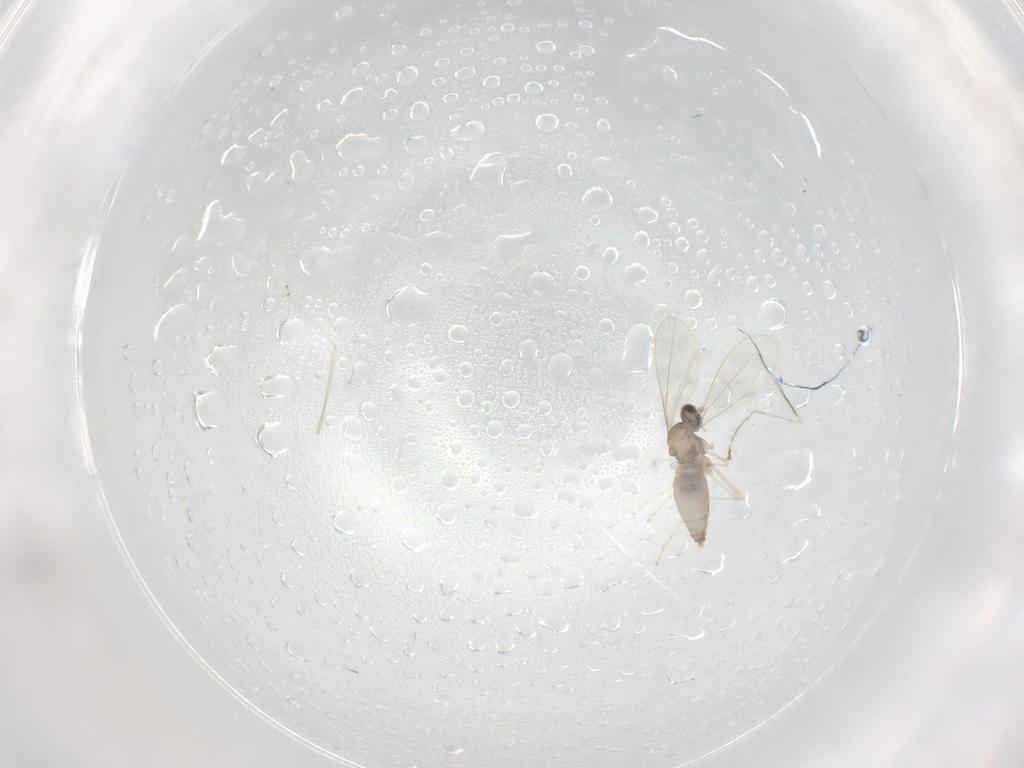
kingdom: Animalia
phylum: Arthropoda
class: Insecta
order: Diptera
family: Cecidomyiidae
